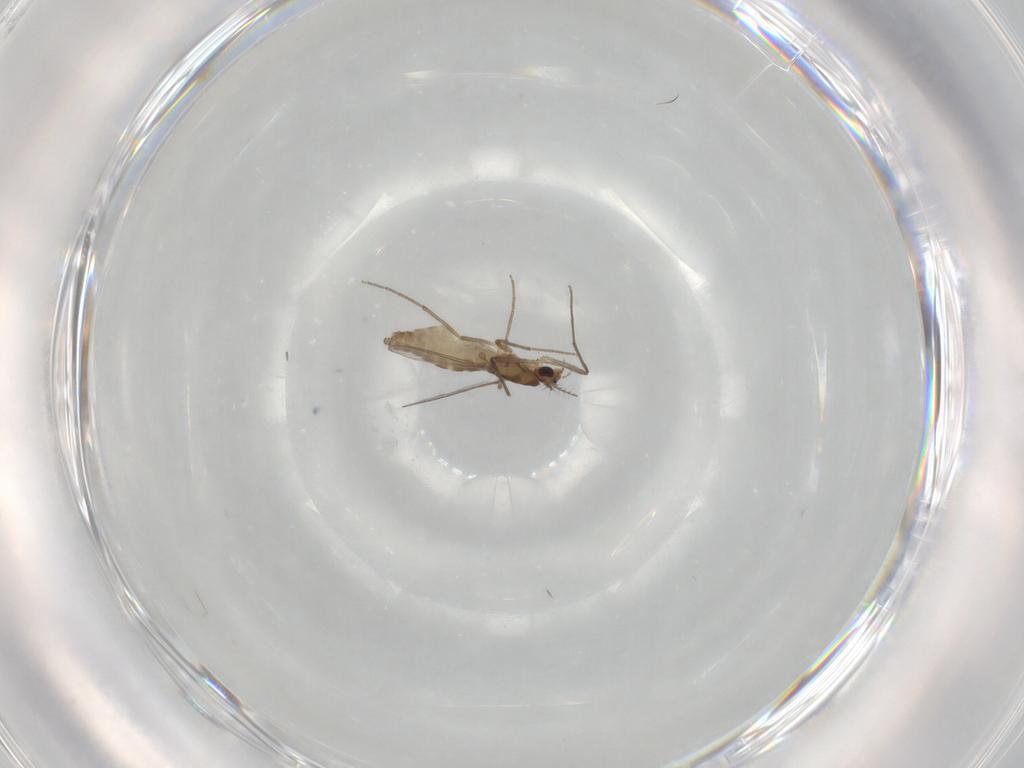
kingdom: Animalia
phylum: Arthropoda
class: Insecta
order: Diptera
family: Chironomidae
